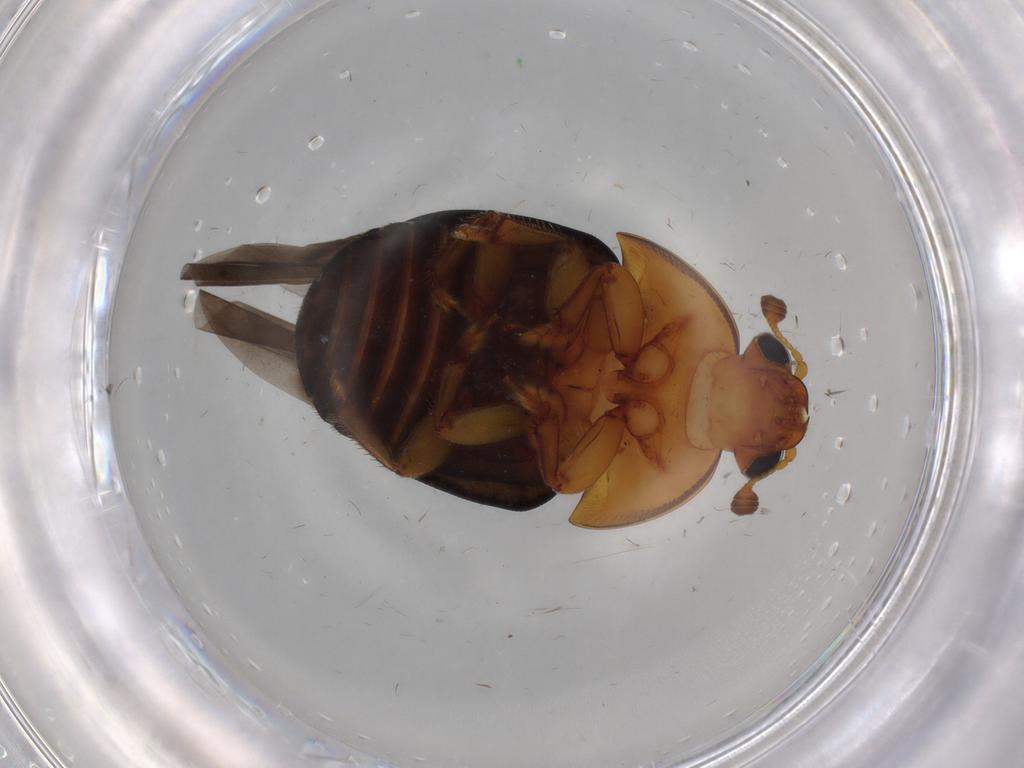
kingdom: Animalia
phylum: Arthropoda
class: Insecta
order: Coleoptera
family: Nitidulidae
